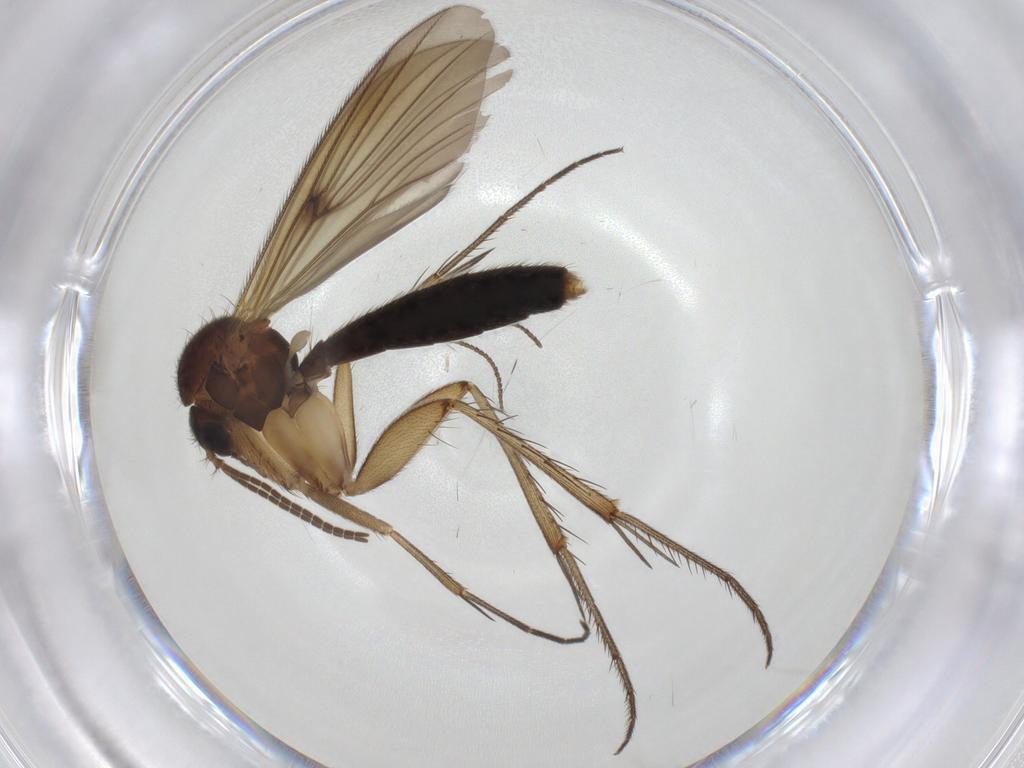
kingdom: Animalia
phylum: Arthropoda
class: Insecta
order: Diptera
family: Mycetophilidae
